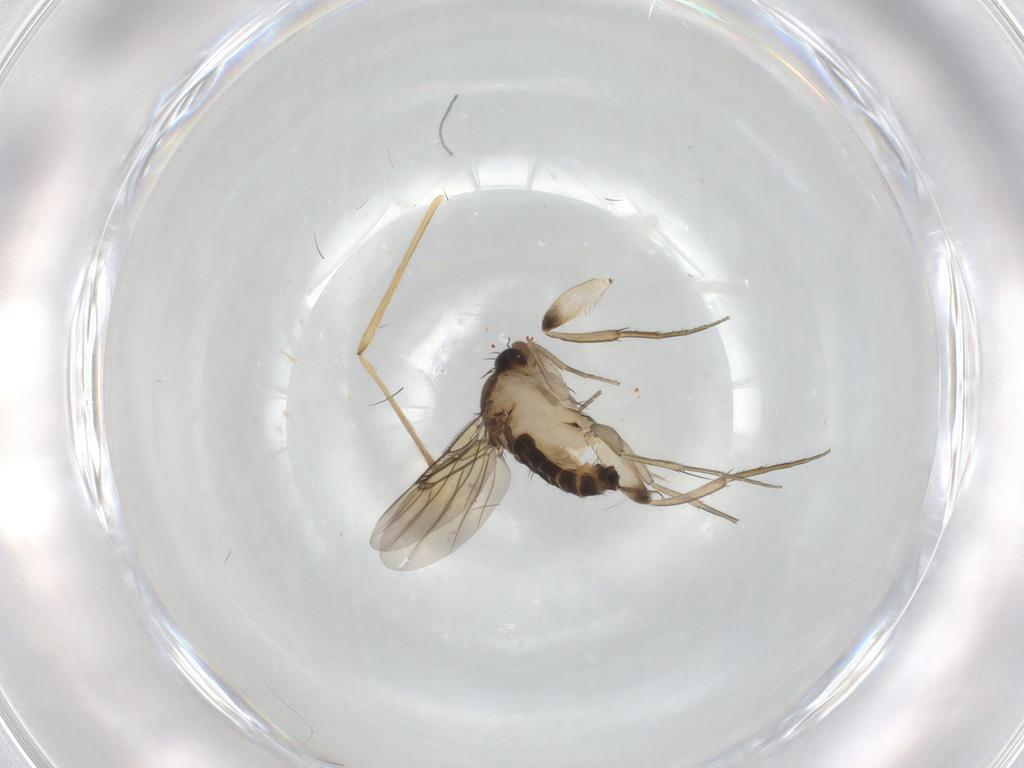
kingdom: Animalia
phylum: Arthropoda
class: Insecta
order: Diptera
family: Phoridae
